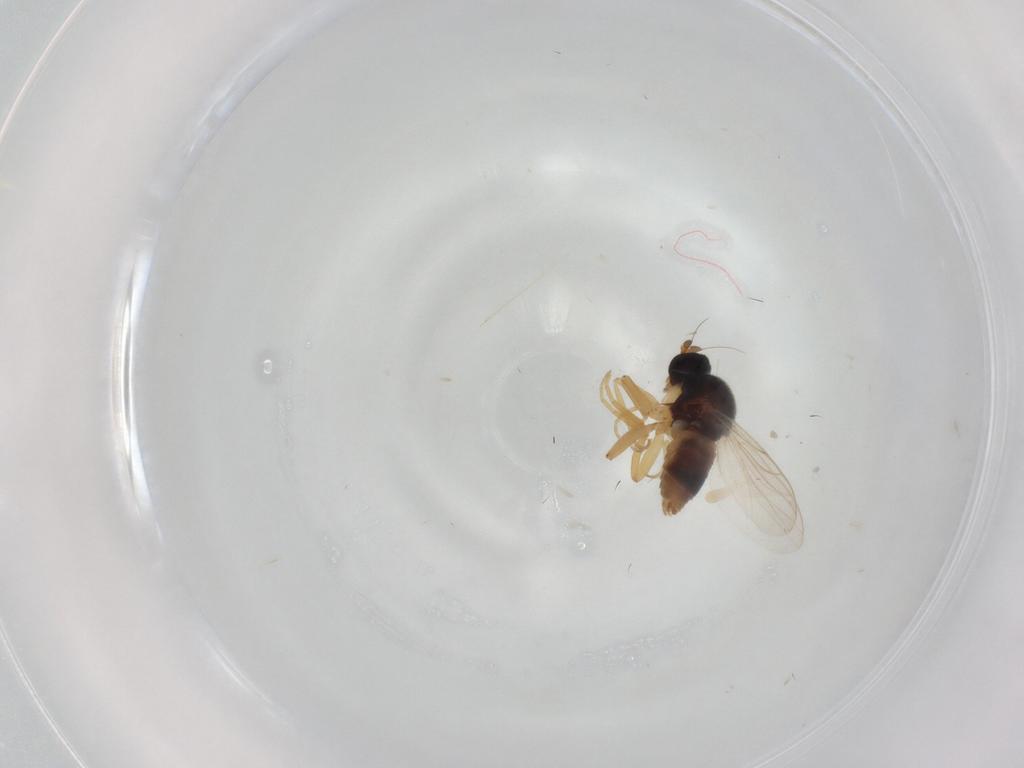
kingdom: Animalia
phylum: Arthropoda
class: Insecta
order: Diptera
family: Hybotidae
